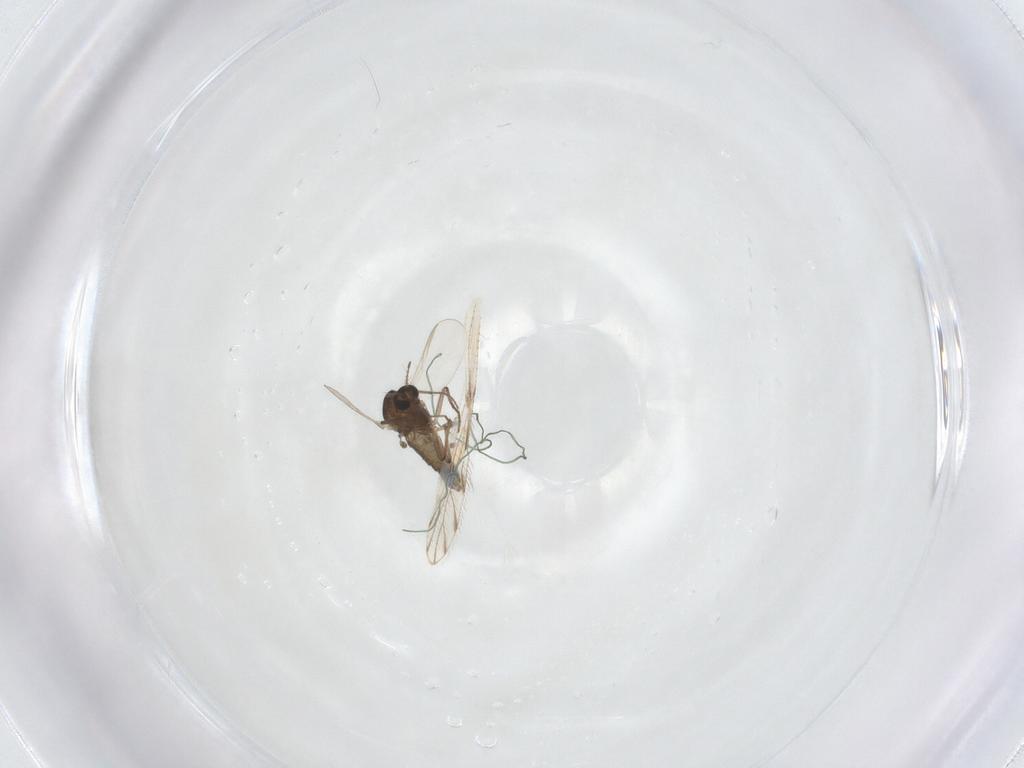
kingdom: Animalia
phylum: Arthropoda
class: Insecta
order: Diptera
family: Chironomidae
